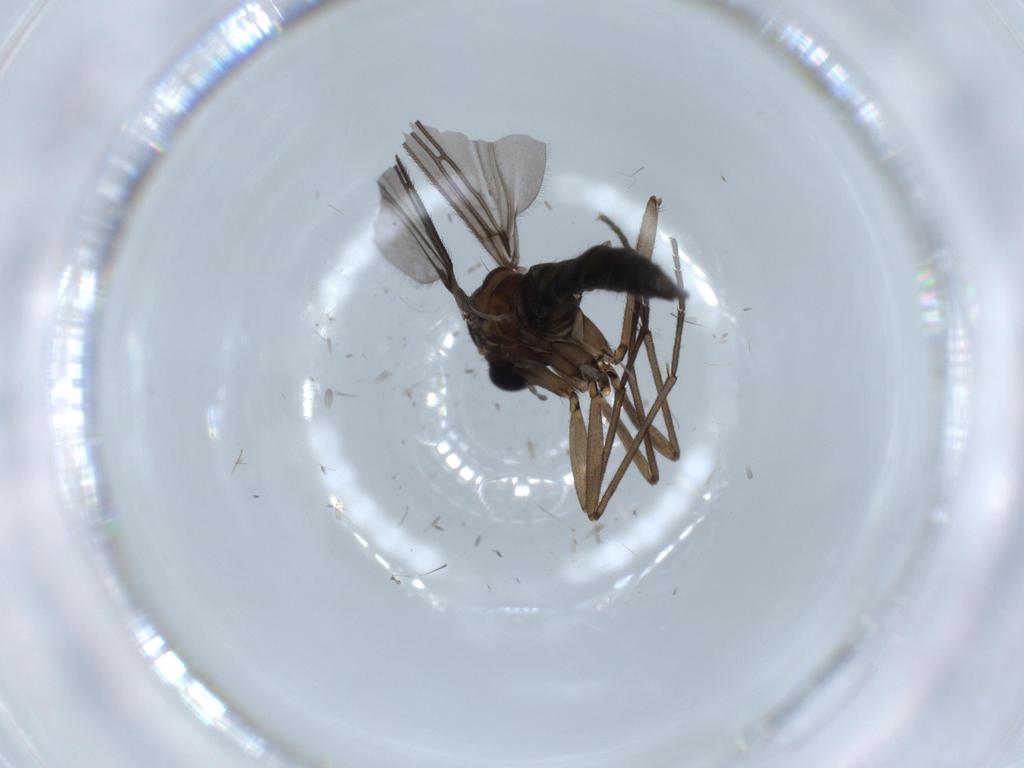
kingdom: Animalia
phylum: Arthropoda
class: Insecta
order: Diptera
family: Sciaridae
